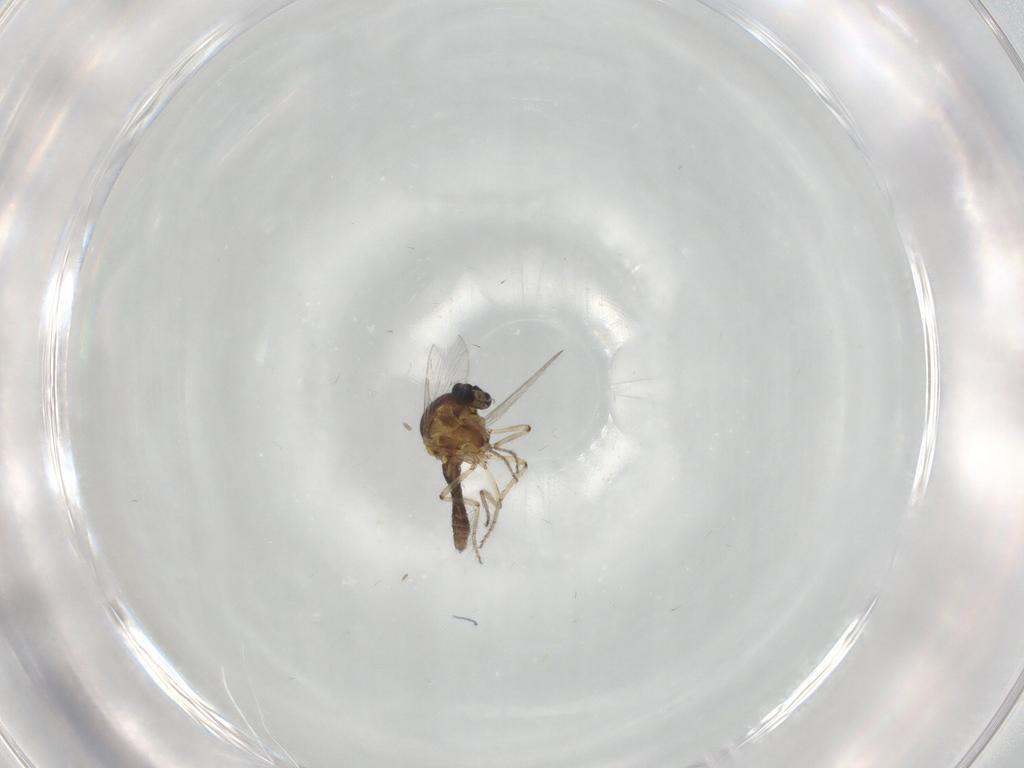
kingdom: Animalia
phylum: Arthropoda
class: Insecta
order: Diptera
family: Ceratopogonidae
